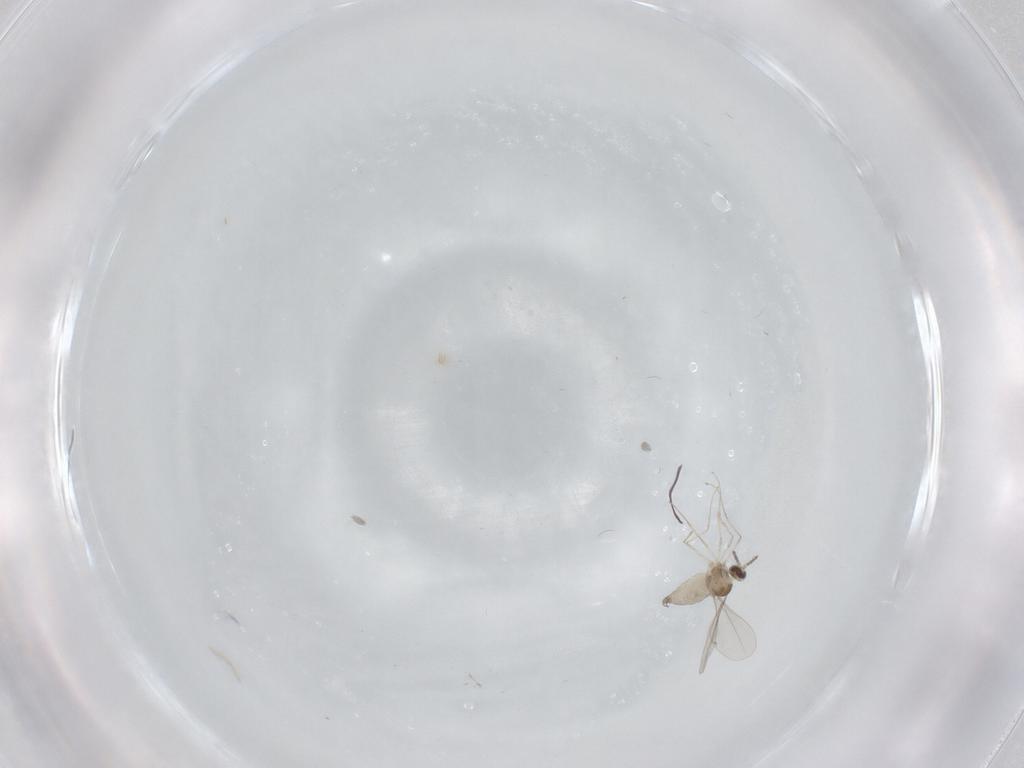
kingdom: Animalia
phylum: Arthropoda
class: Insecta
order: Diptera
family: Cecidomyiidae
